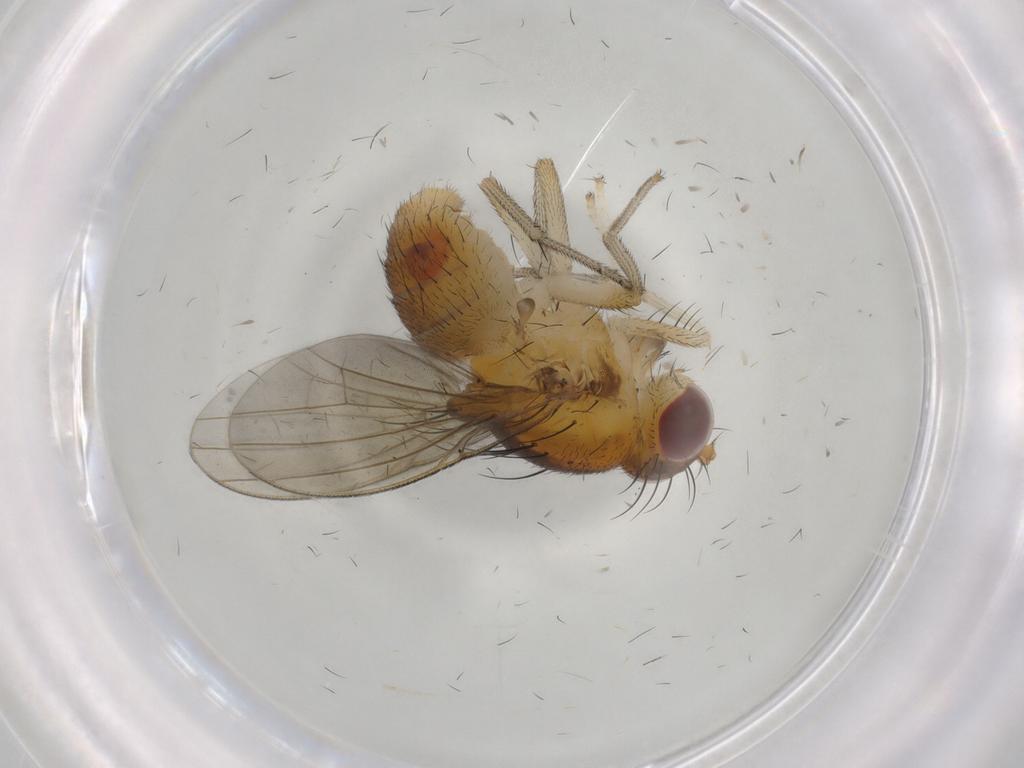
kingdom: Animalia
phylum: Arthropoda
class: Insecta
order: Diptera
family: Lauxaniidae
